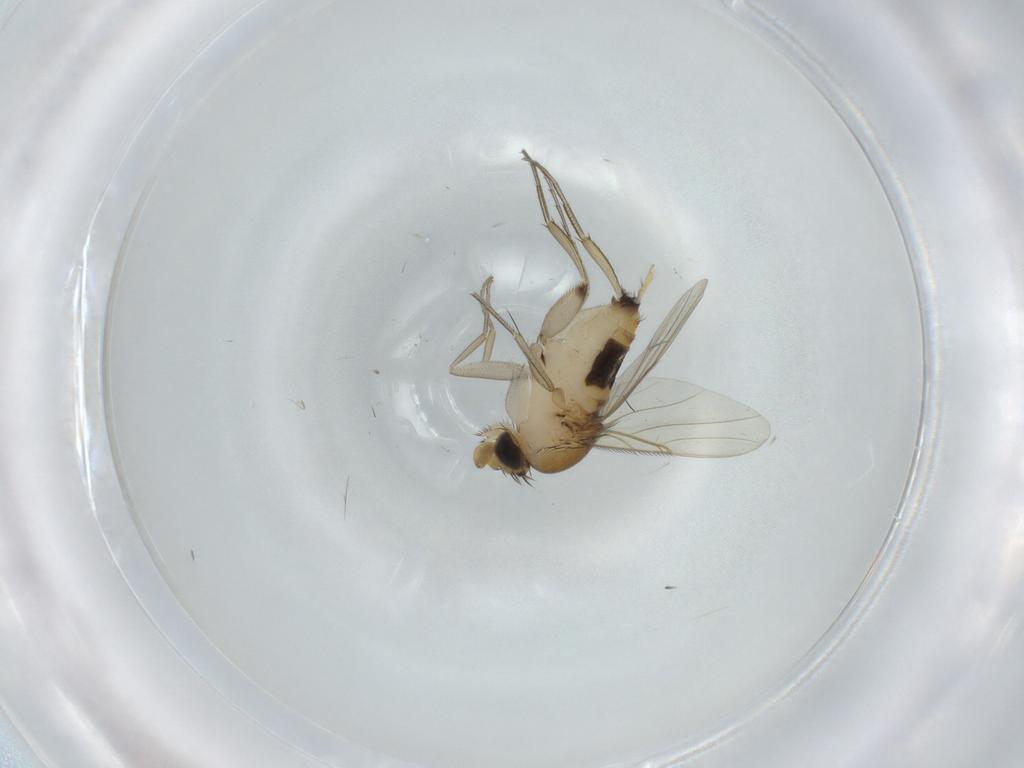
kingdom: Animalia
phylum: Arthropoda
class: Insecta
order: Diptera
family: Phoridae
